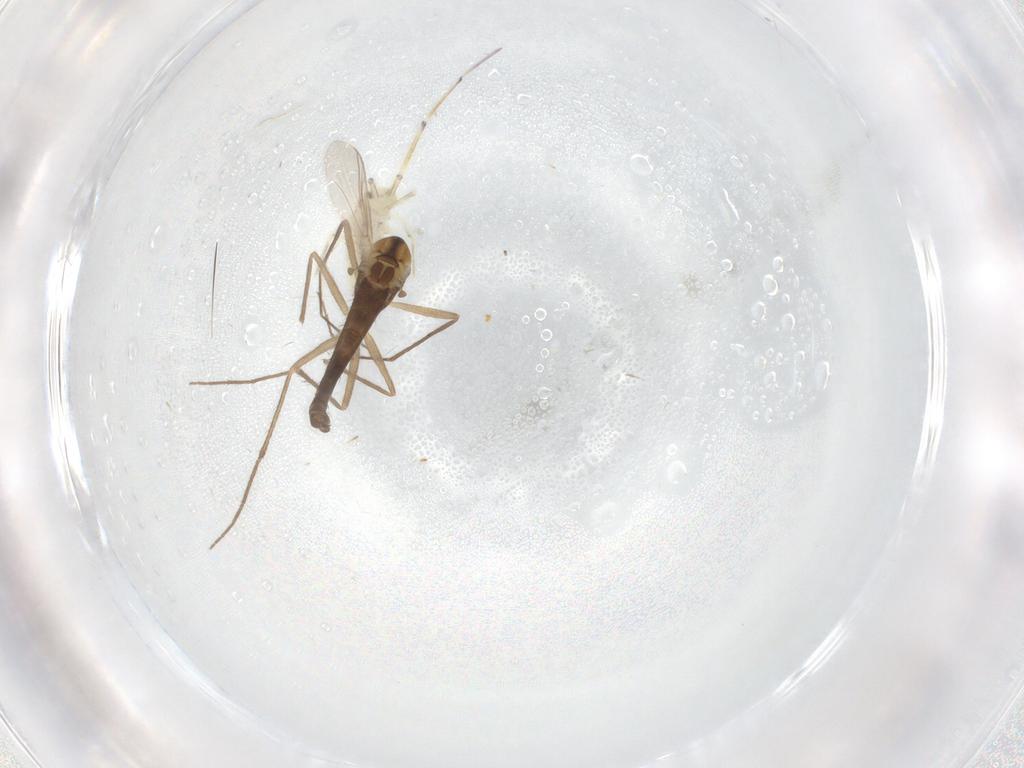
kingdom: Animalia
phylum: Arthropoda
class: Insecta
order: Diptera
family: Chironomidae
